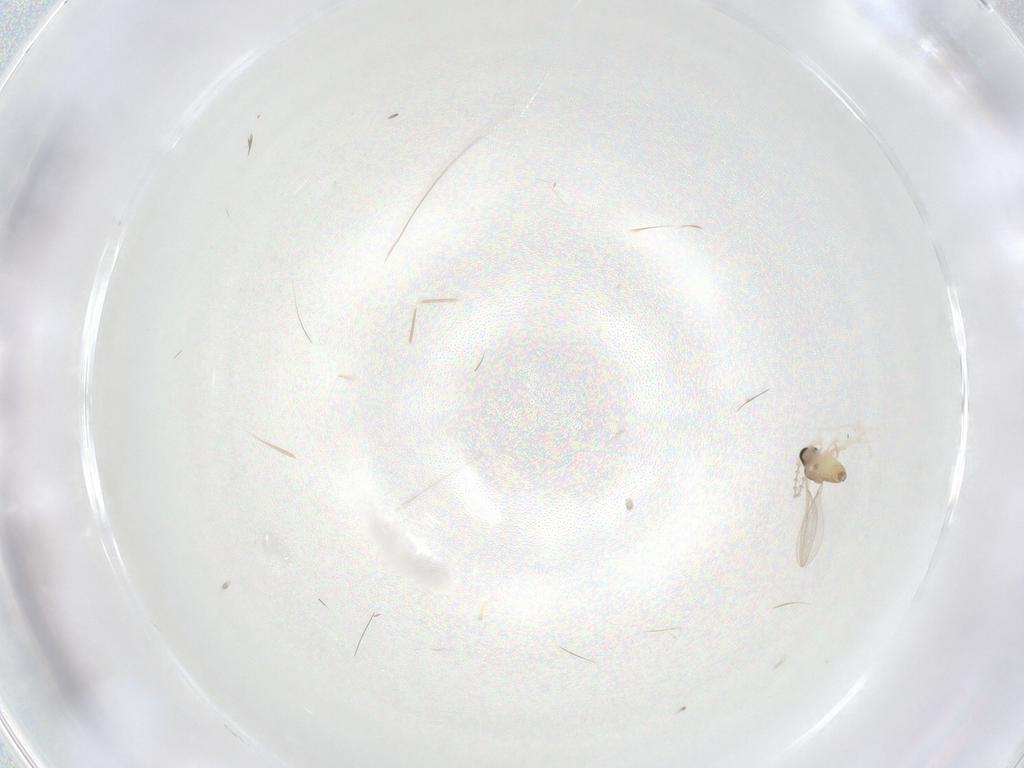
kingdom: Animalia
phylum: Arthropoda
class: Insecta
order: Diptera
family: Cecidomyiidae
